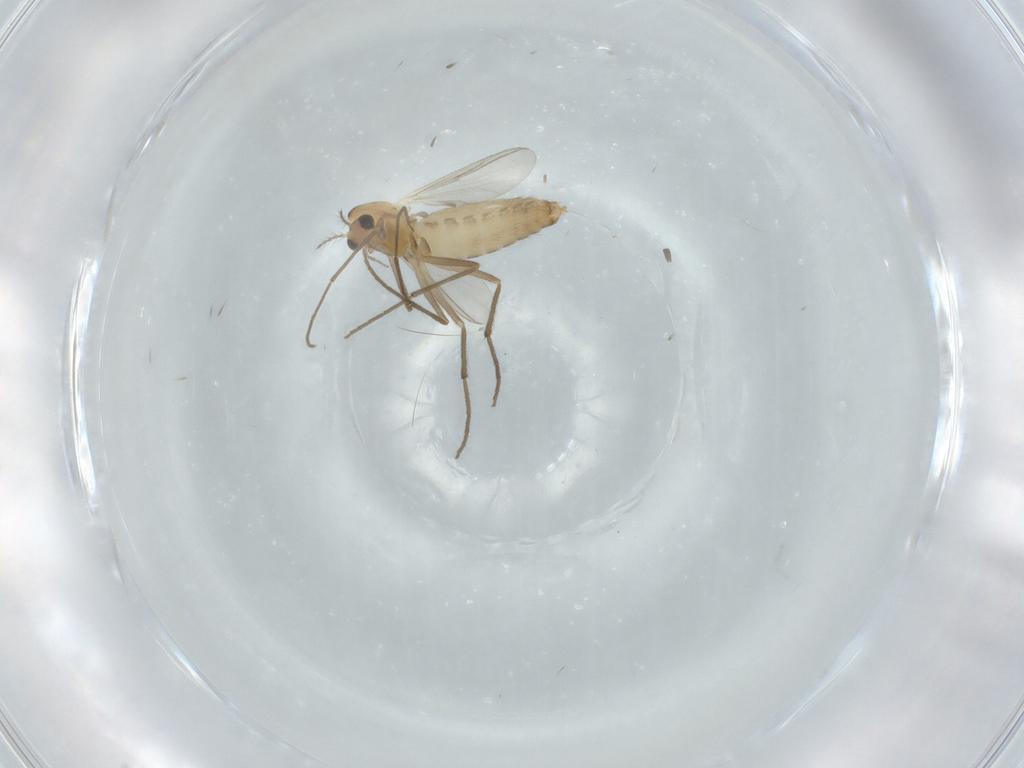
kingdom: Animalia
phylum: Arthropoda
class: Insecta
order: Diptera
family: Chironomidae
